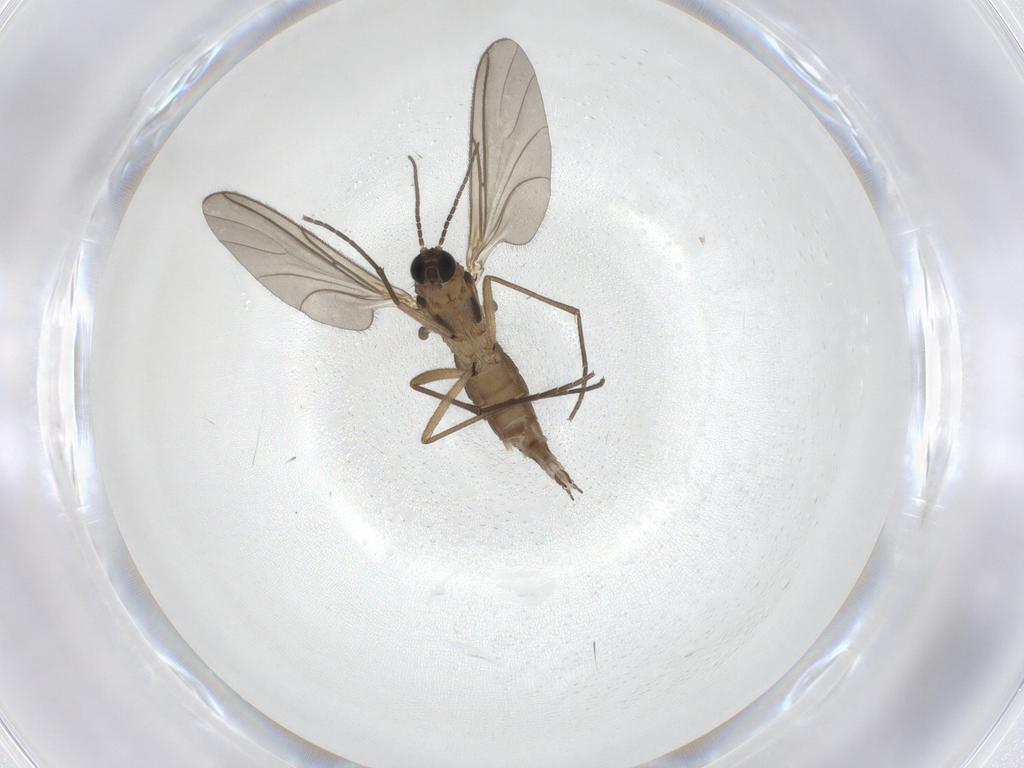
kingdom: Animalia
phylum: Arthropoda
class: Insecta
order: Diptera
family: Sciaridae
